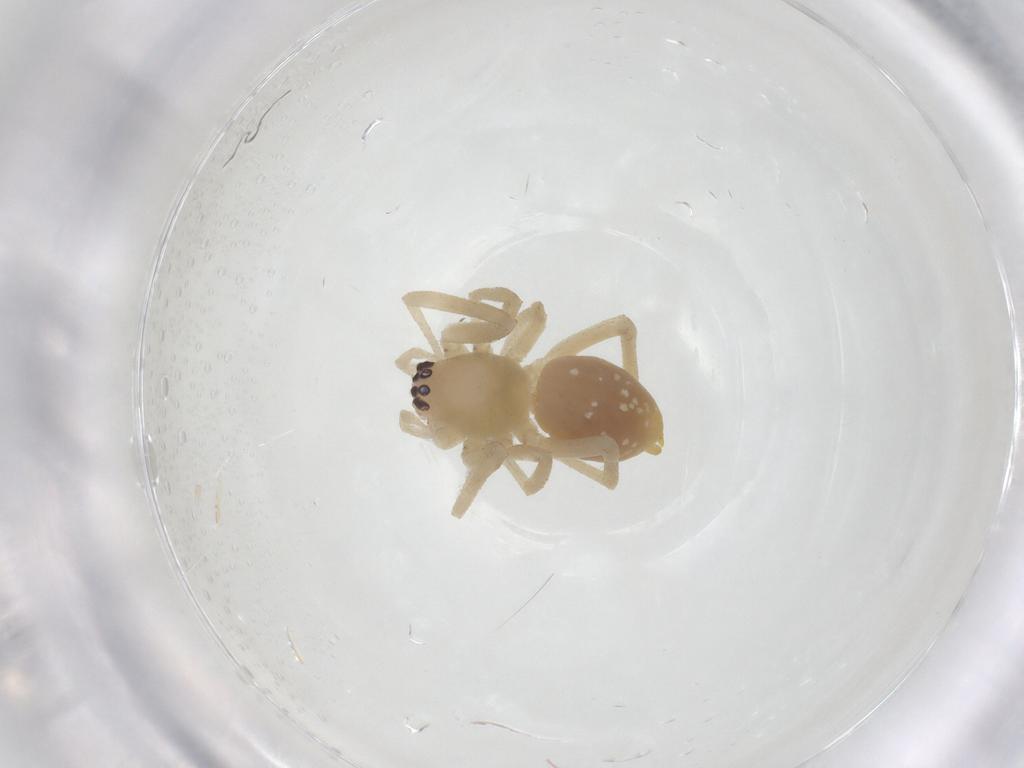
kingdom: Animalia
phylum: Arthropoda
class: Arachnida
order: Araneae
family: Cheiracanthiidae
